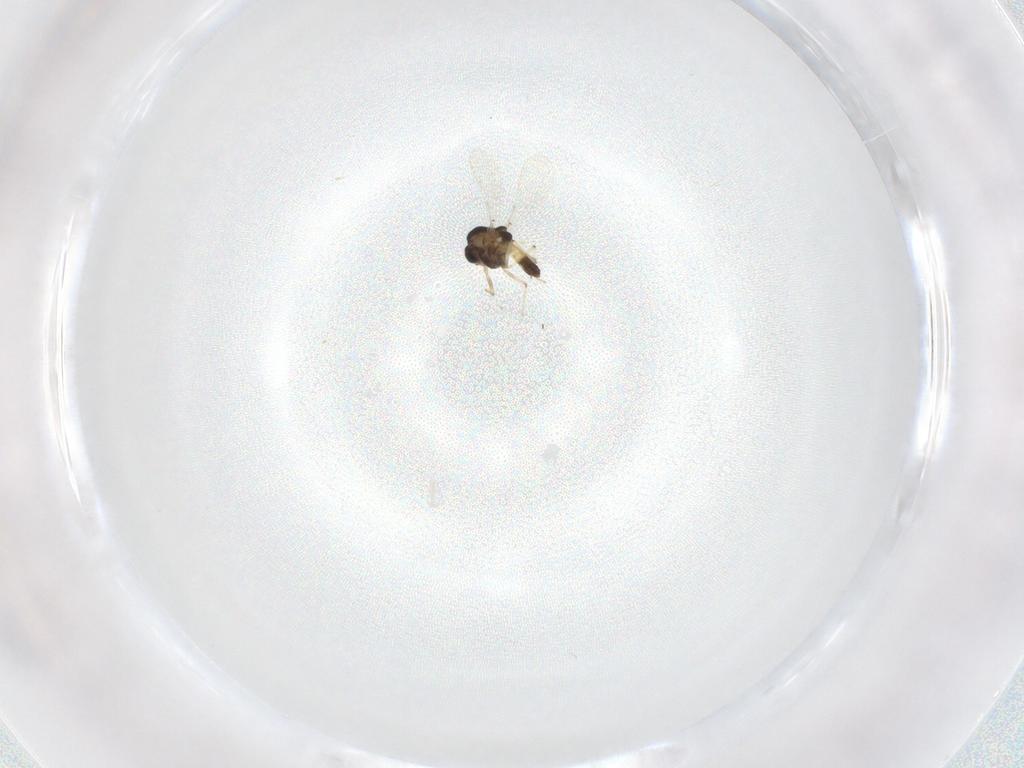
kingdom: Animalia
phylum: Arthropoda
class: Insecta
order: Diptera
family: Chironomidae
